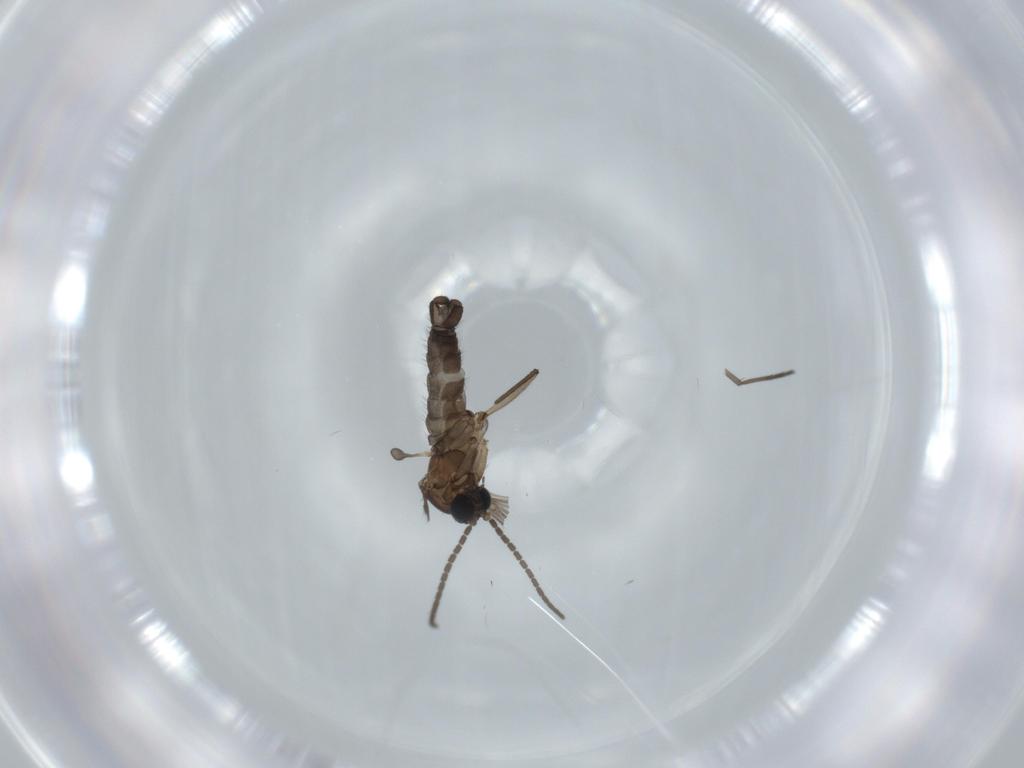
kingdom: Animalia
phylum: Arthropoda
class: Insecta
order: Diptera
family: Sciaridae
